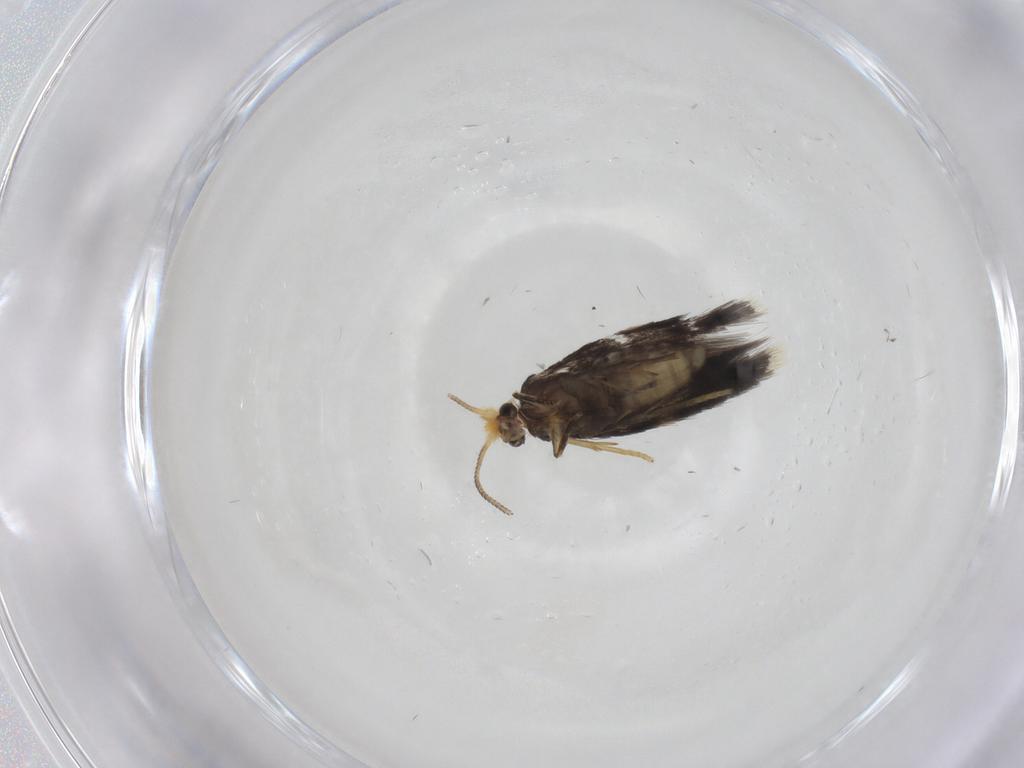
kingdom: Animalia
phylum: Arthropoda
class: Insecta
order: Lepidoptera
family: Nepticulidae
